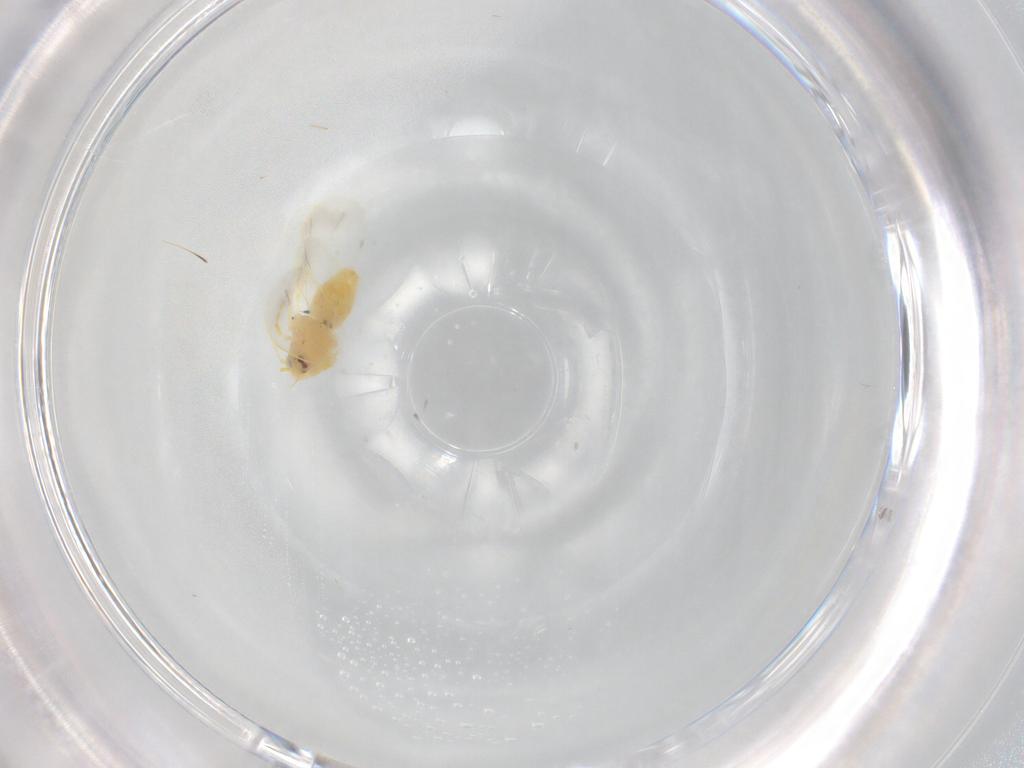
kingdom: Animalia
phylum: Arthropoda
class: Insecta
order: Hemiptera
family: Aleyrodidae
